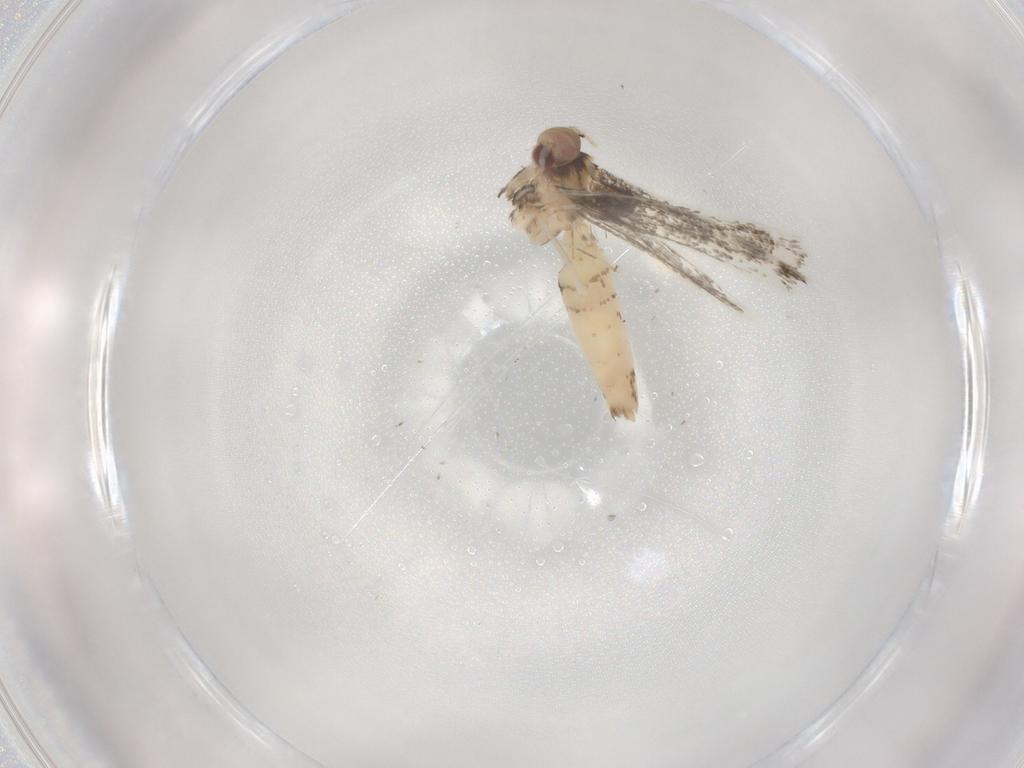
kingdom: Animalia
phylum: Arthropoda
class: Insecta
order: Lepidoptera
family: Gracillariidae
